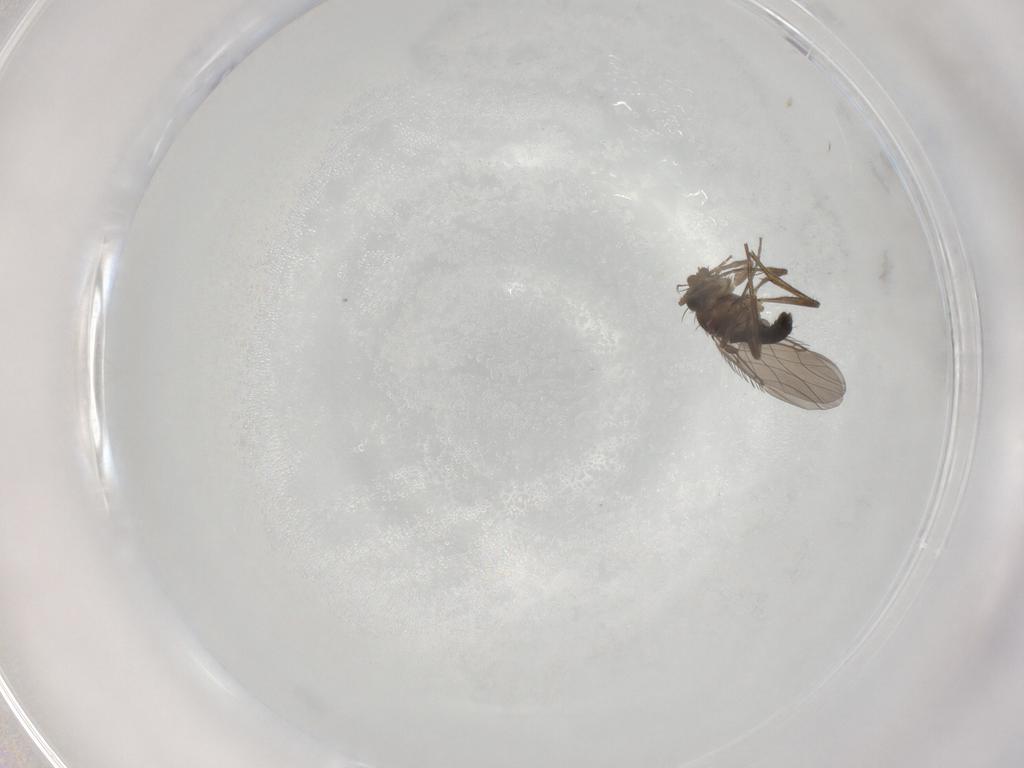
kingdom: Animalia
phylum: Arthropoda
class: Insecta
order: Diptera
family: Phoridae
